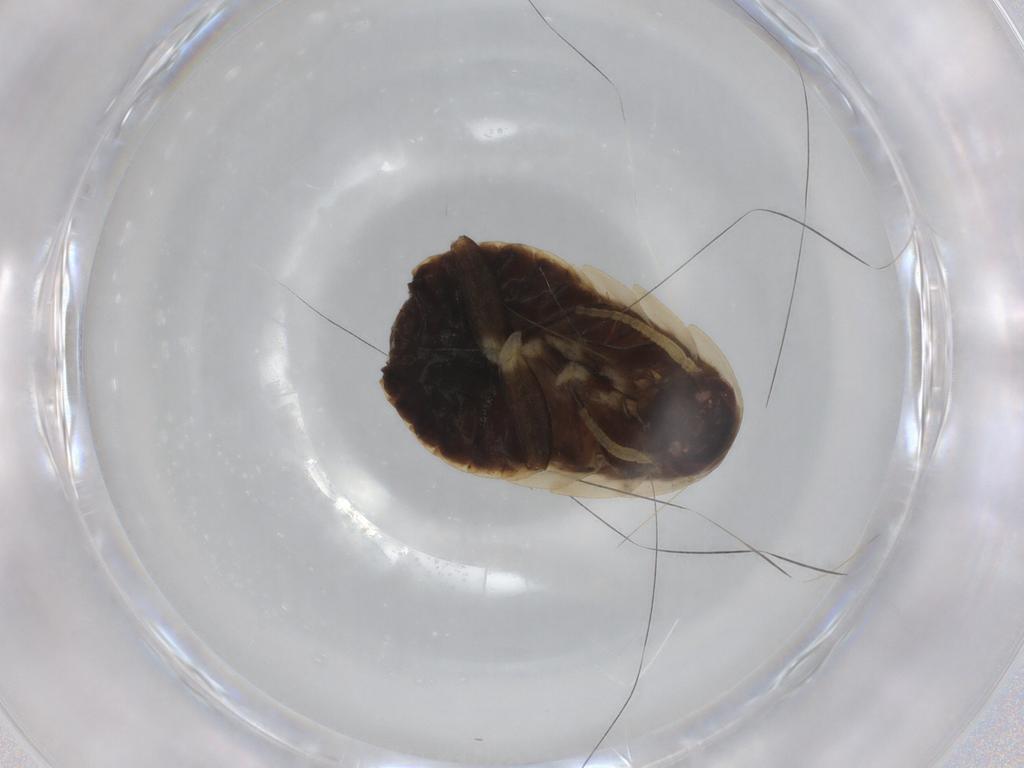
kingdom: Animalia
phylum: Arthropoda
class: Insecta
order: Blattodea
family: Ectobiidae
